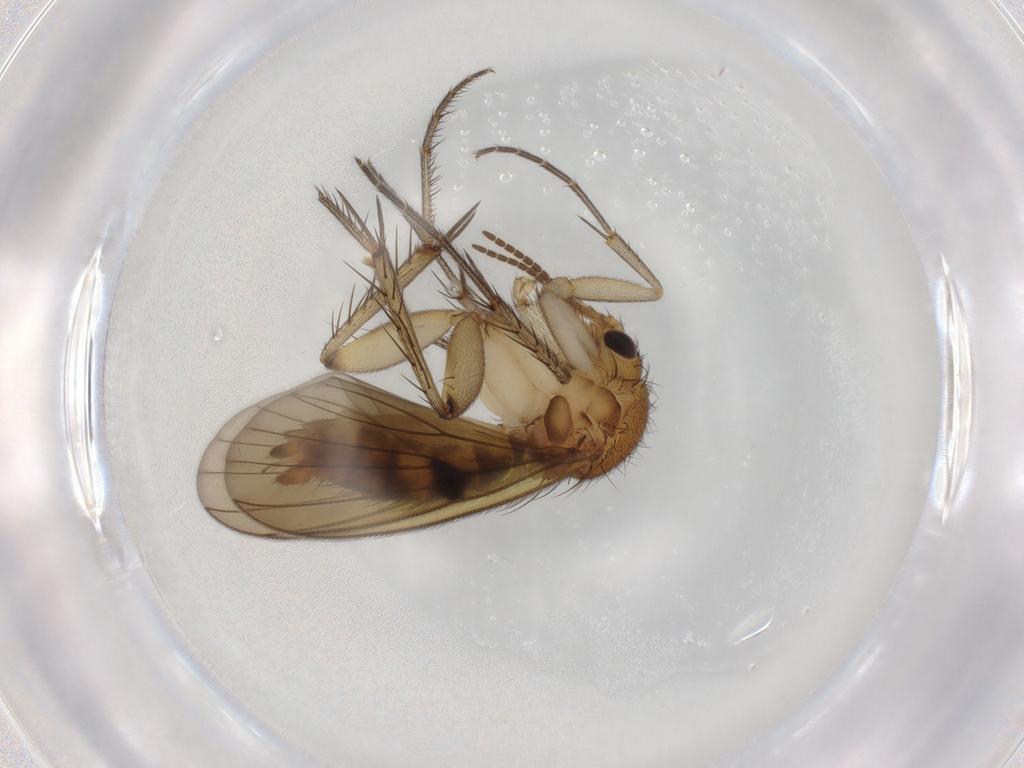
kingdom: Animalia
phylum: Arthropoda
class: Insecta
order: Diptera
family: Mycetophilidae
